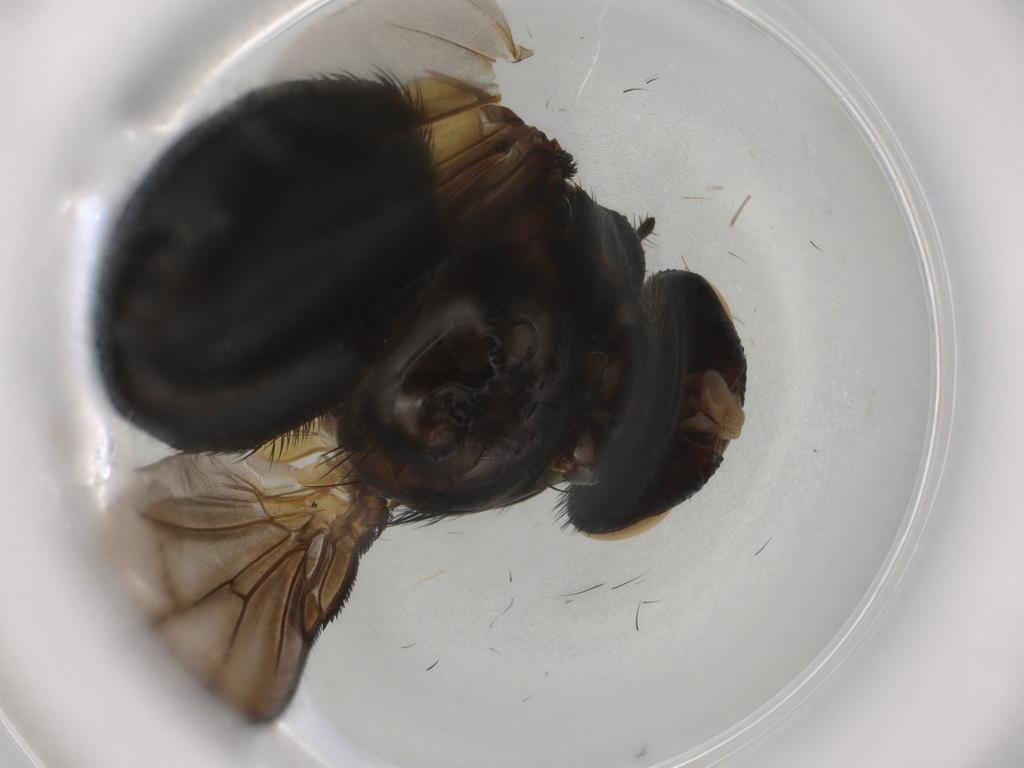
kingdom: Animalia
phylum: Arthropoda
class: Insecta
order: Diptera
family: Tachinidae
